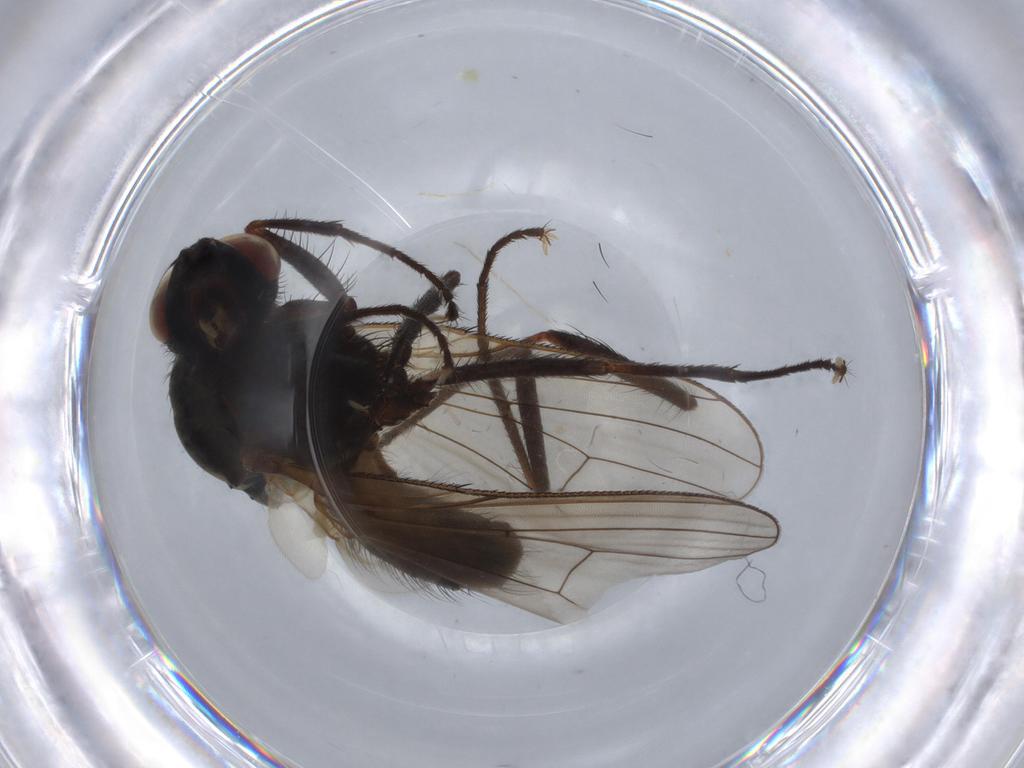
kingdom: Animalia
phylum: Arthropoda
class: Insecta
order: Diptera
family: Anthomyiidae
